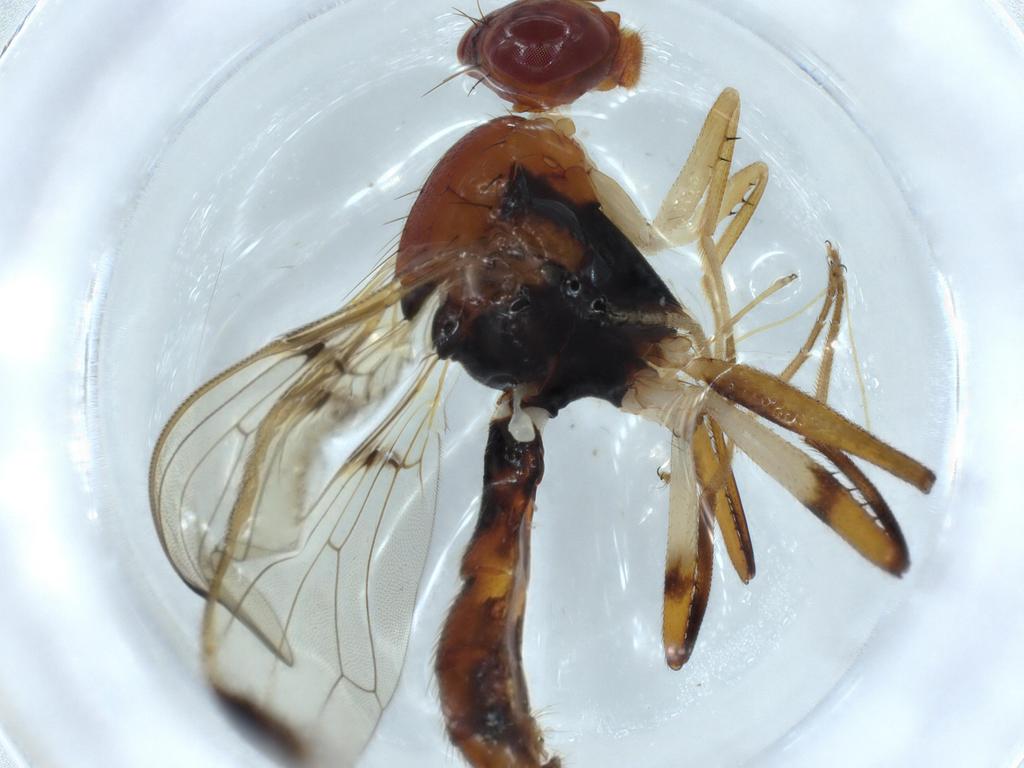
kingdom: Animalia
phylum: Arthropoda
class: Insecta
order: Diptera
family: Richardiidae
